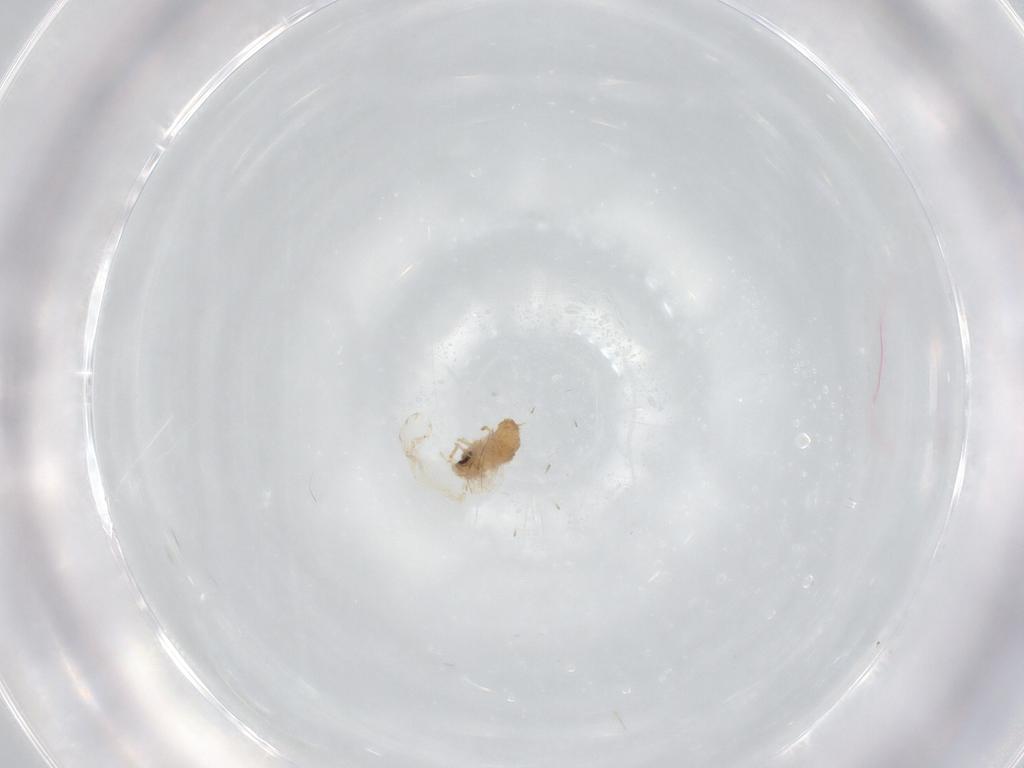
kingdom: Animalia
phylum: Arthropoda
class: Insecta
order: Diptera
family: Psychodidae
